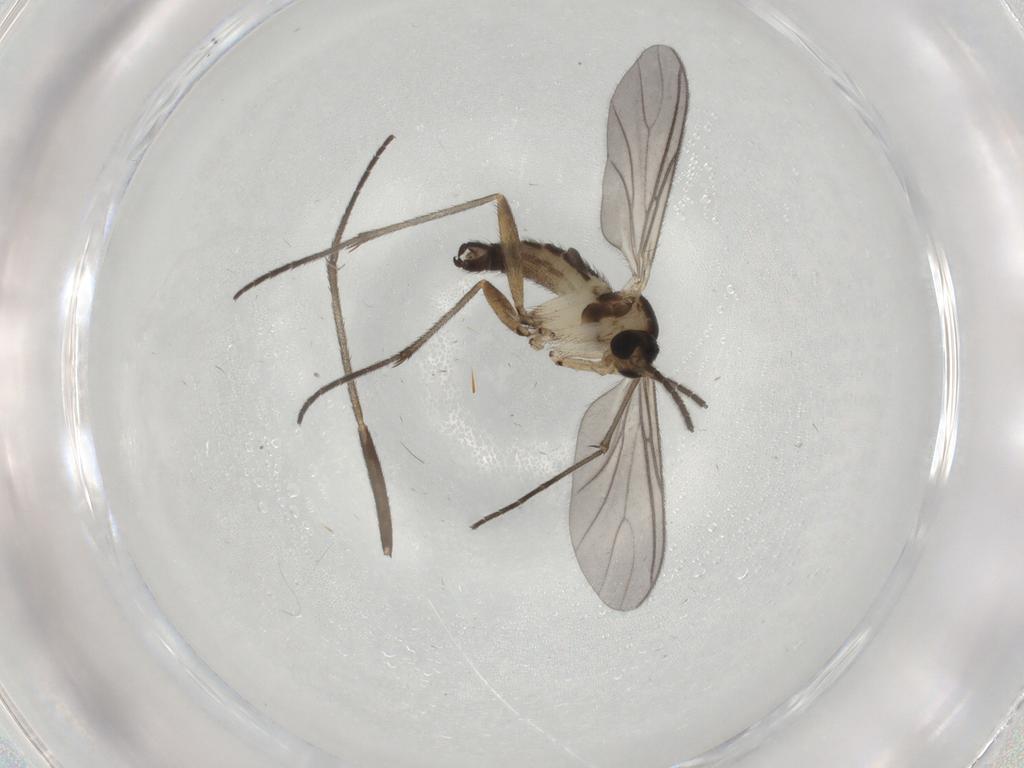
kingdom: Animalia
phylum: Arthropoda
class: Insecta
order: Diptera
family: Sciaridae
